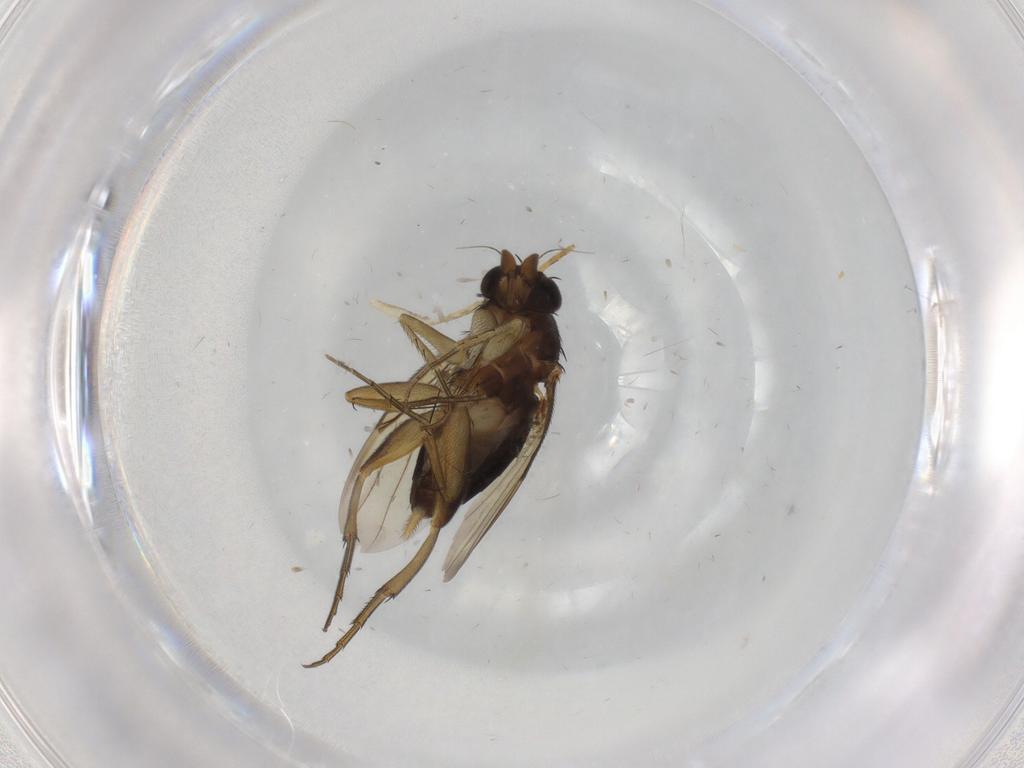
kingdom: Animalia
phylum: Arthropoda
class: Insecta
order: Diptera
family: Phoridae
